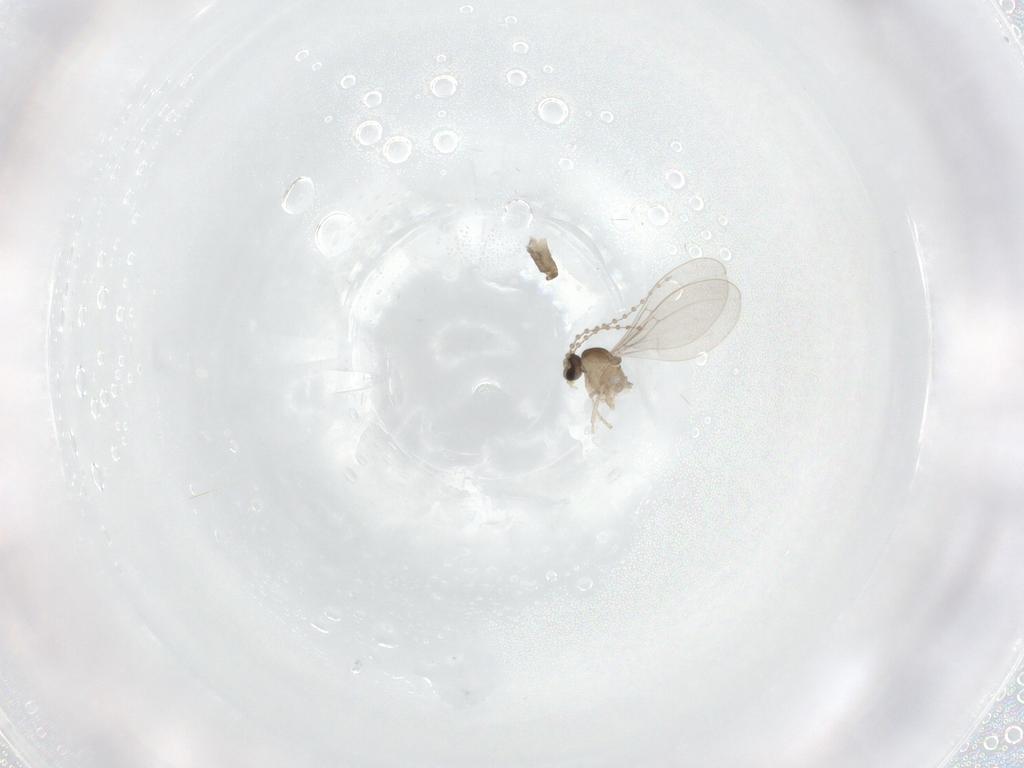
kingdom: Animalia
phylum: Arthropoda
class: Insecta
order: Diptera
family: Cecidomyiidae
